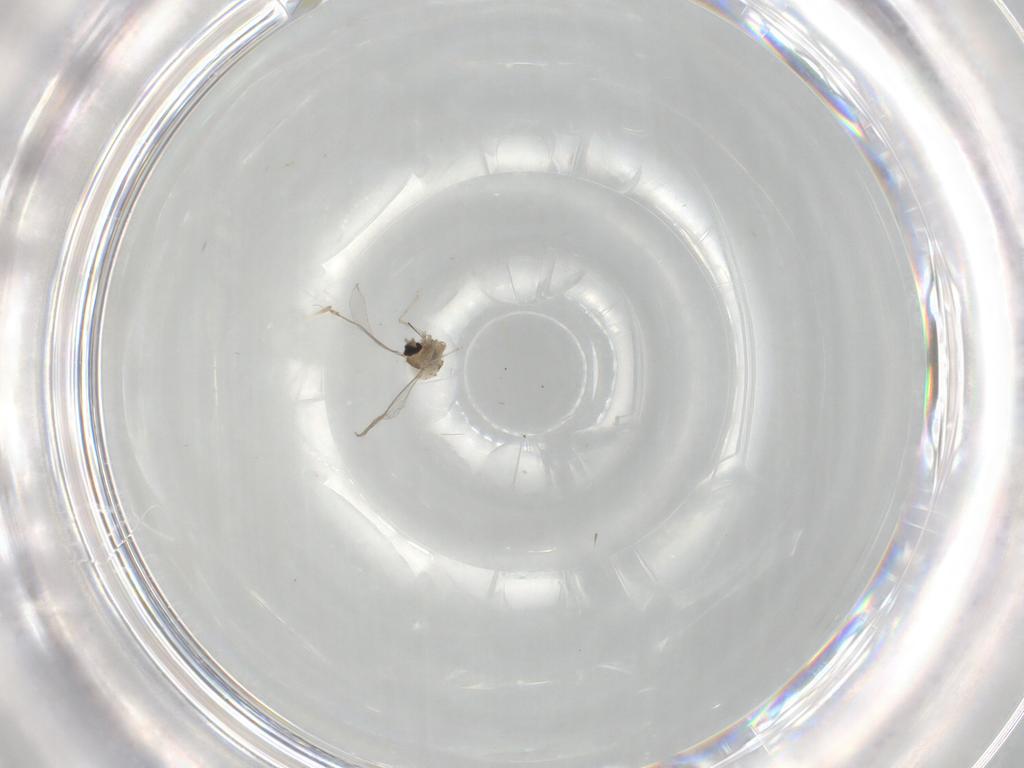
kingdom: Animalia
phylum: Arthropoda
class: Insecta
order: Diptera
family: Cecidomyiidae
